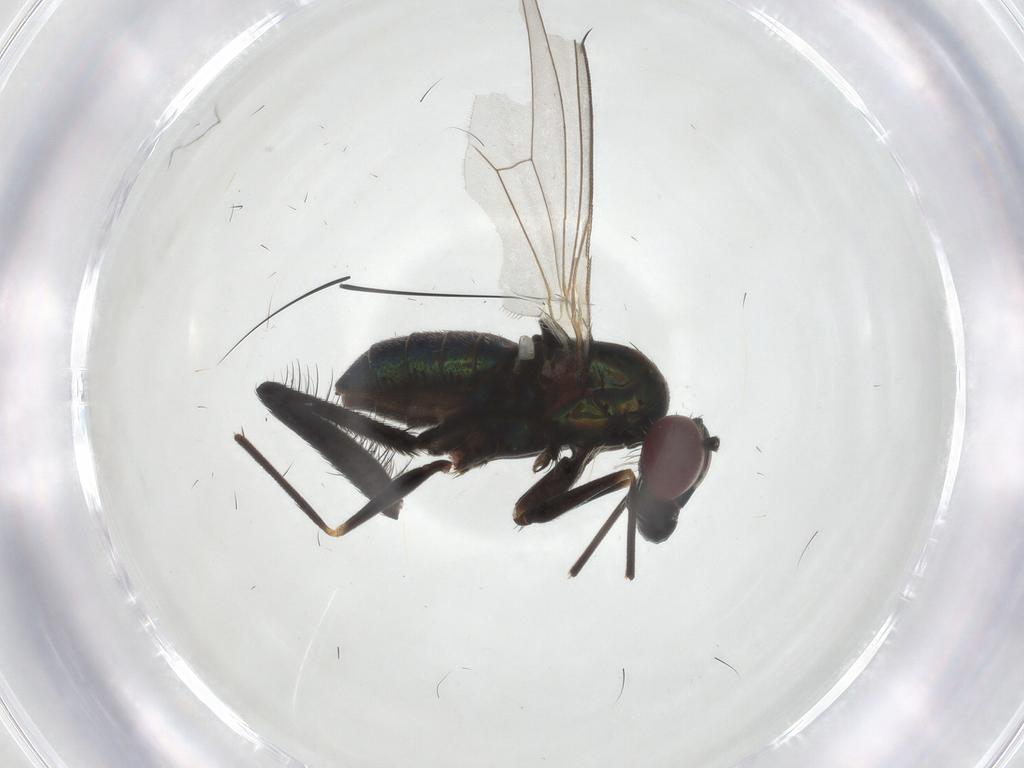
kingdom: Animalia
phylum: Arthropoda
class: Insecta
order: Diptera
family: Dolichopodidae
